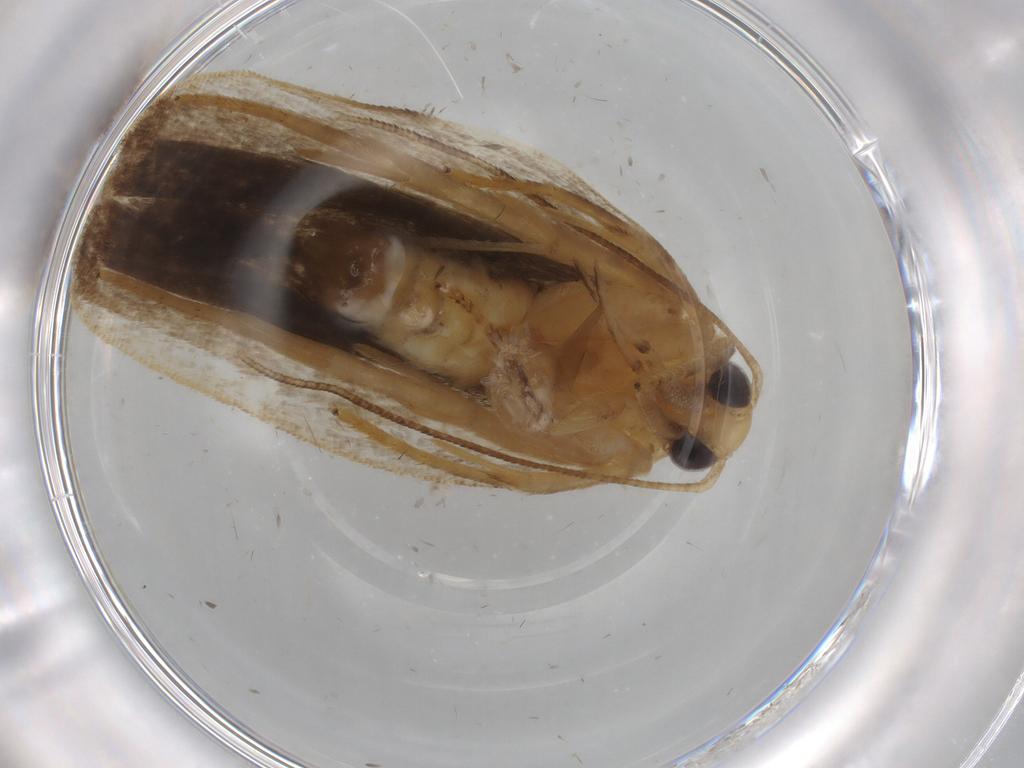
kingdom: Animalia
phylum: Arthropoda
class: Insecta
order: Lepidoptera
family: Depressariidae
